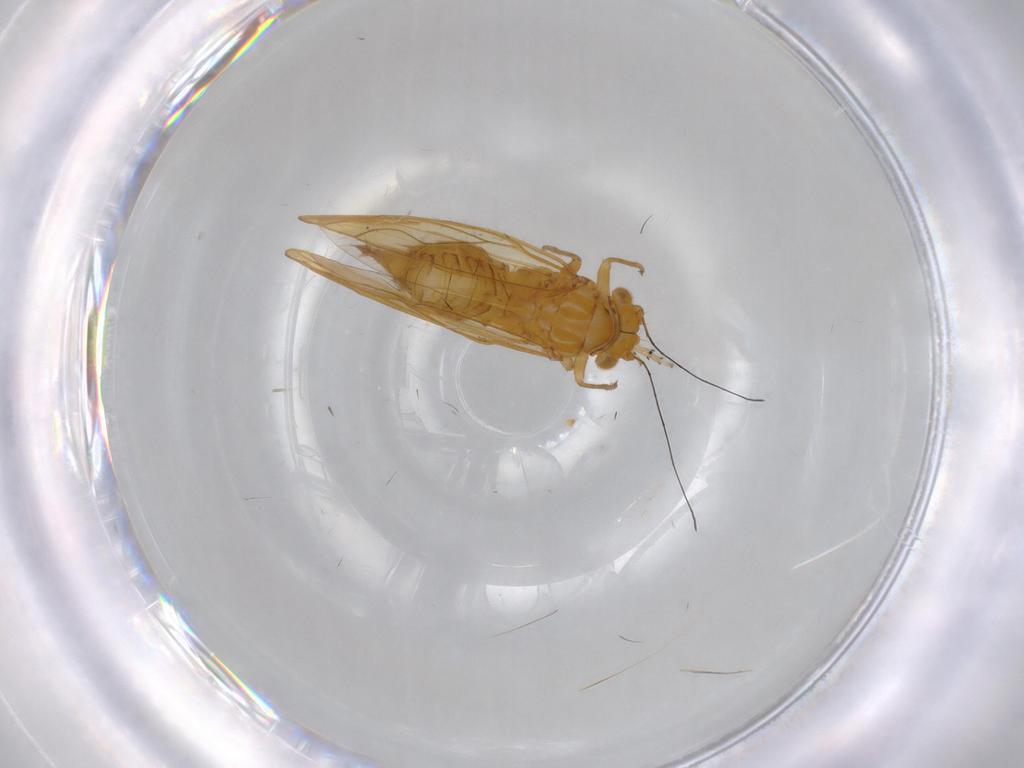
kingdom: Animalia
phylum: Arthropoda
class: Insecta
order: Hemiptera
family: Psyllidae
